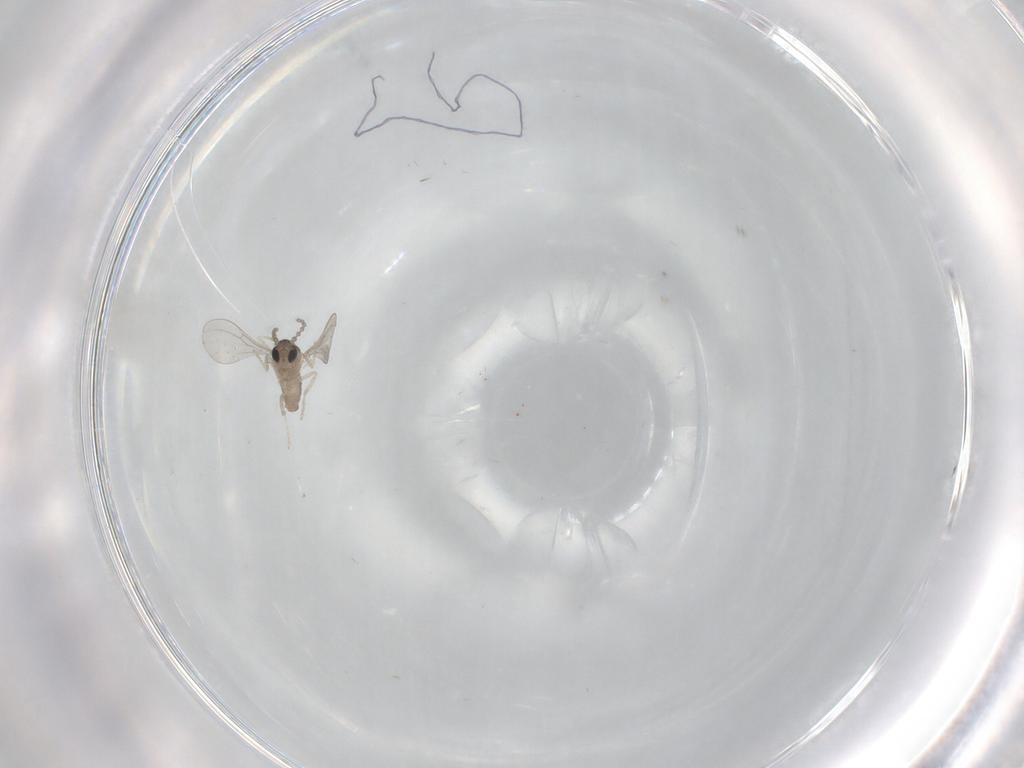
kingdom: Animalia
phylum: Arthropoda
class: Insecta
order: Diptera
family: Cecidomyiidae
